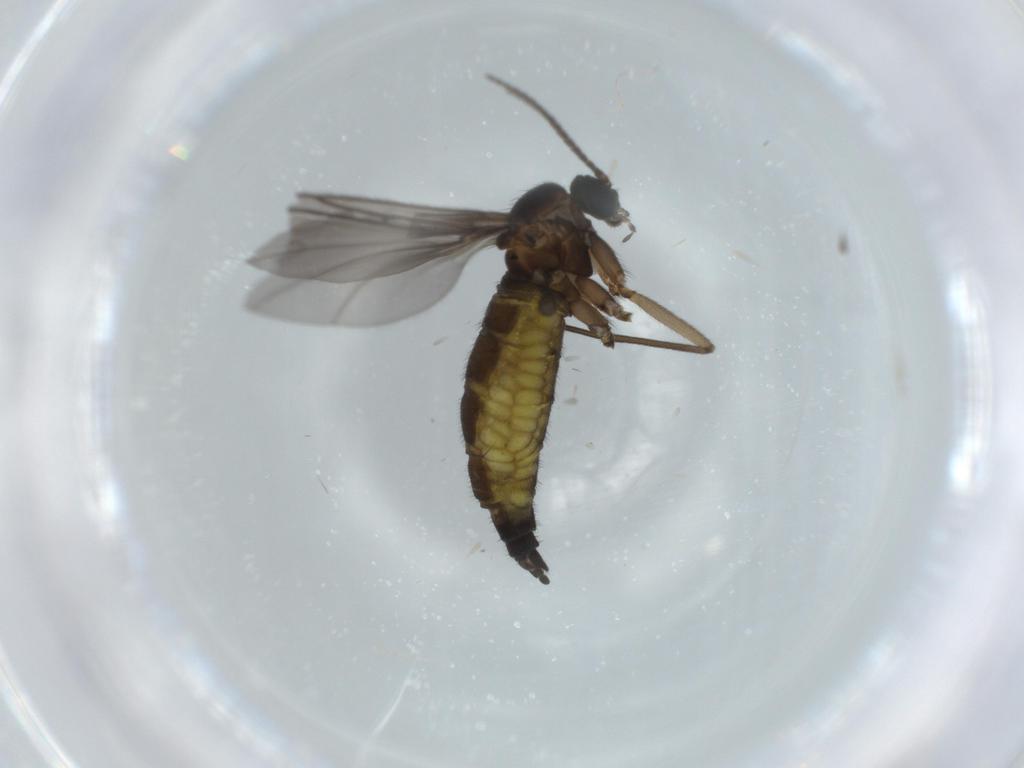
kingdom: Animalia
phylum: Arthropoda
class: Insecta
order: Diptera
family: Sciaridae
